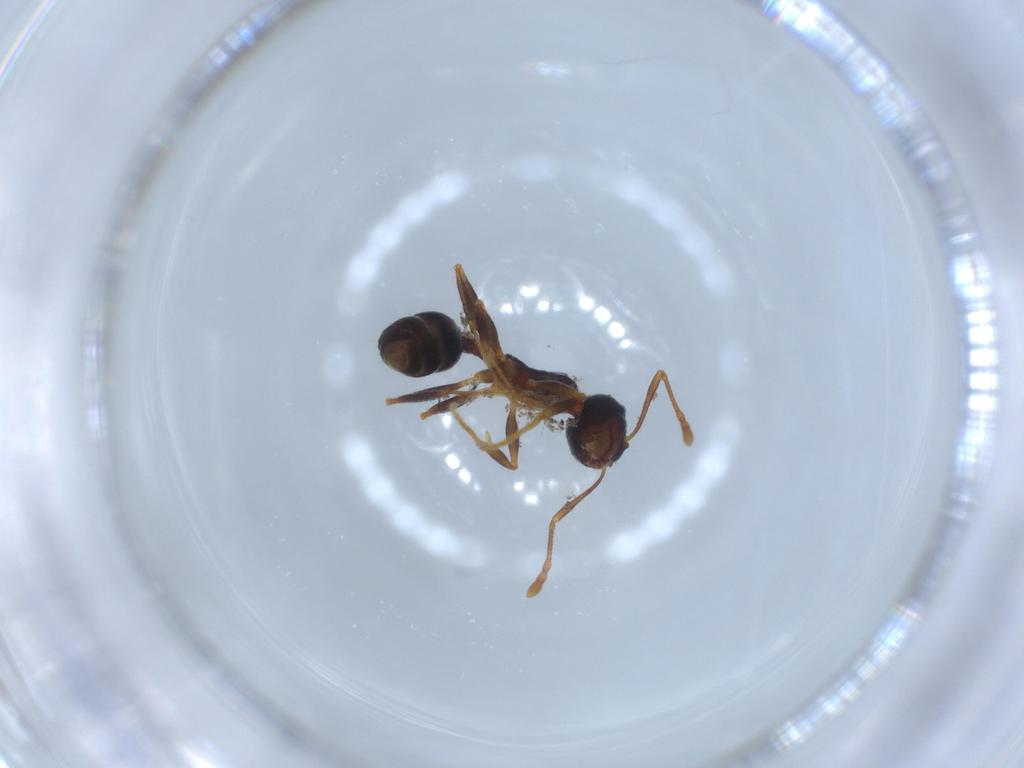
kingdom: Animalia
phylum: Arthropoda
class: Insecta
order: Hymenoptera
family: Formicidae
